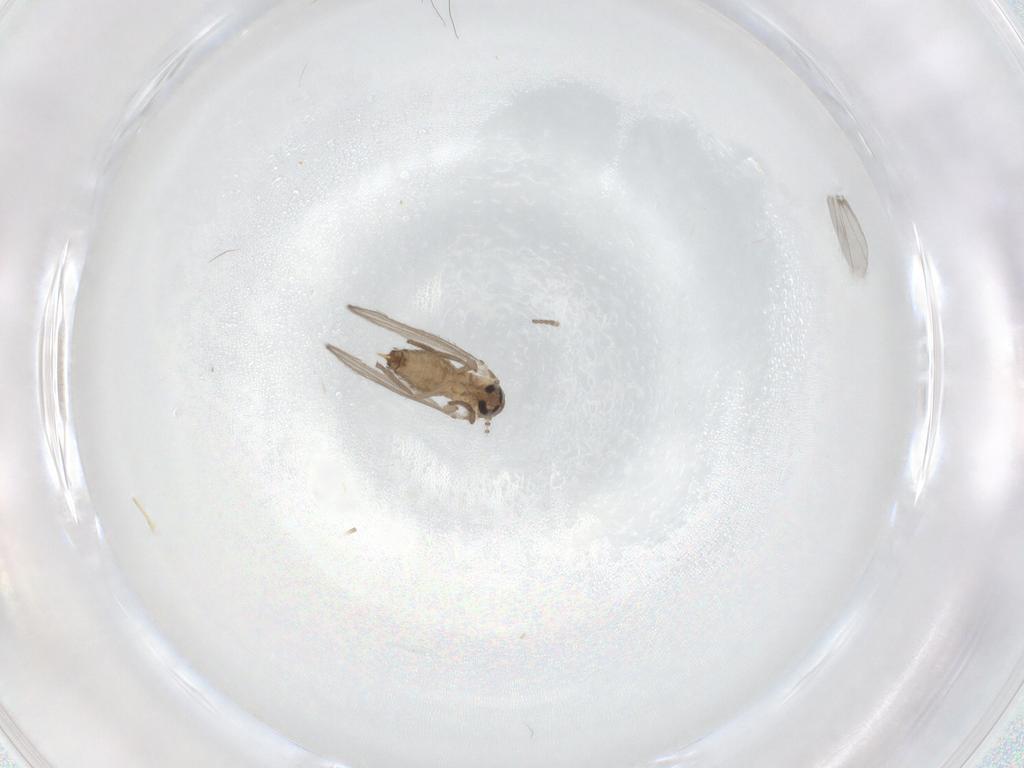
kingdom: Animalia
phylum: Arthropoda
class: Insecta
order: Diptera
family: Psychodidae
